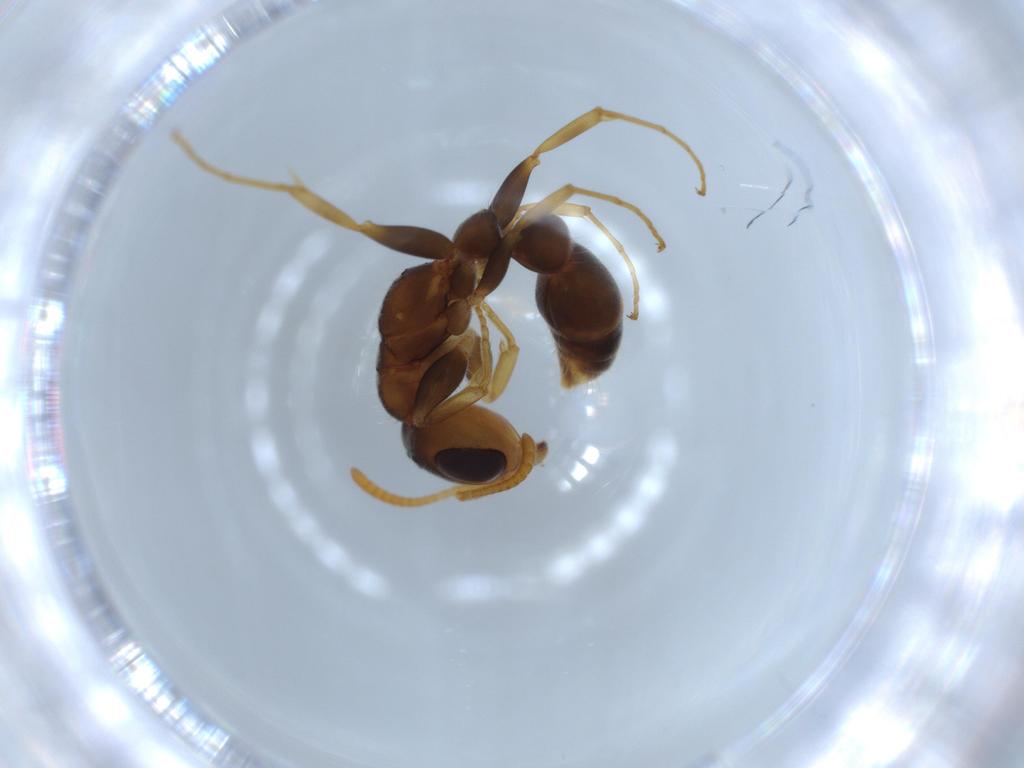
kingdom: Animalia
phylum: Arthropoda
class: Insecta
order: Hymenoptera
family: Formicidae
